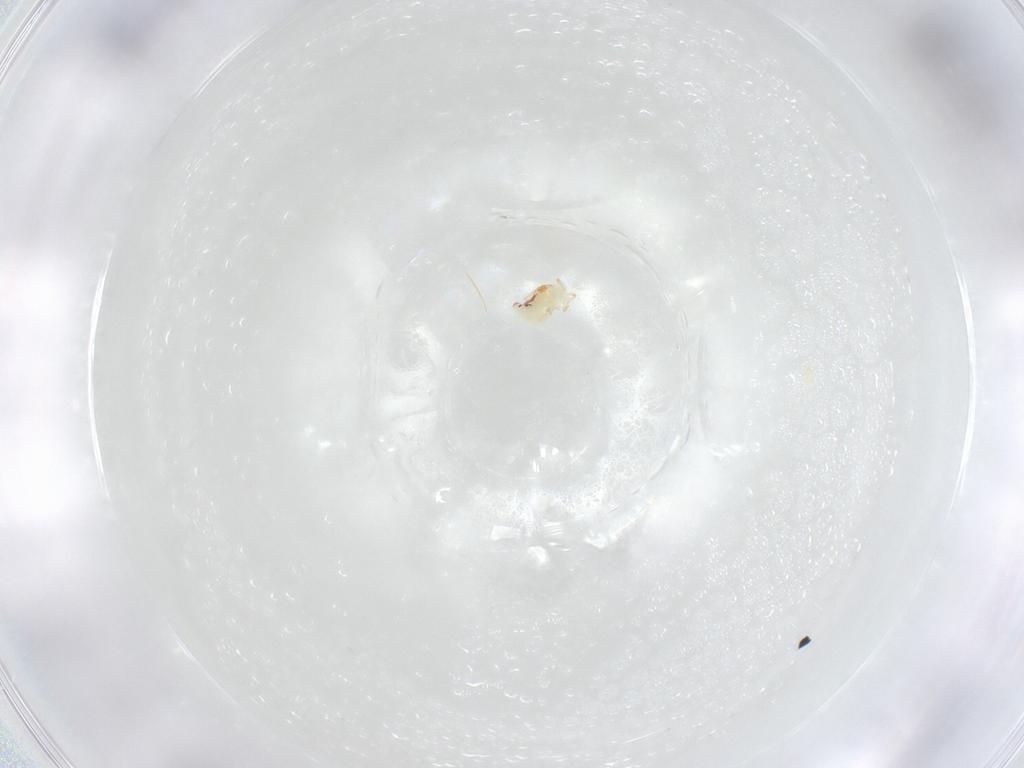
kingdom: Animalia
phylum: Arthropoda
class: Collembola
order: Symphypleona
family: Bourletiellidae
